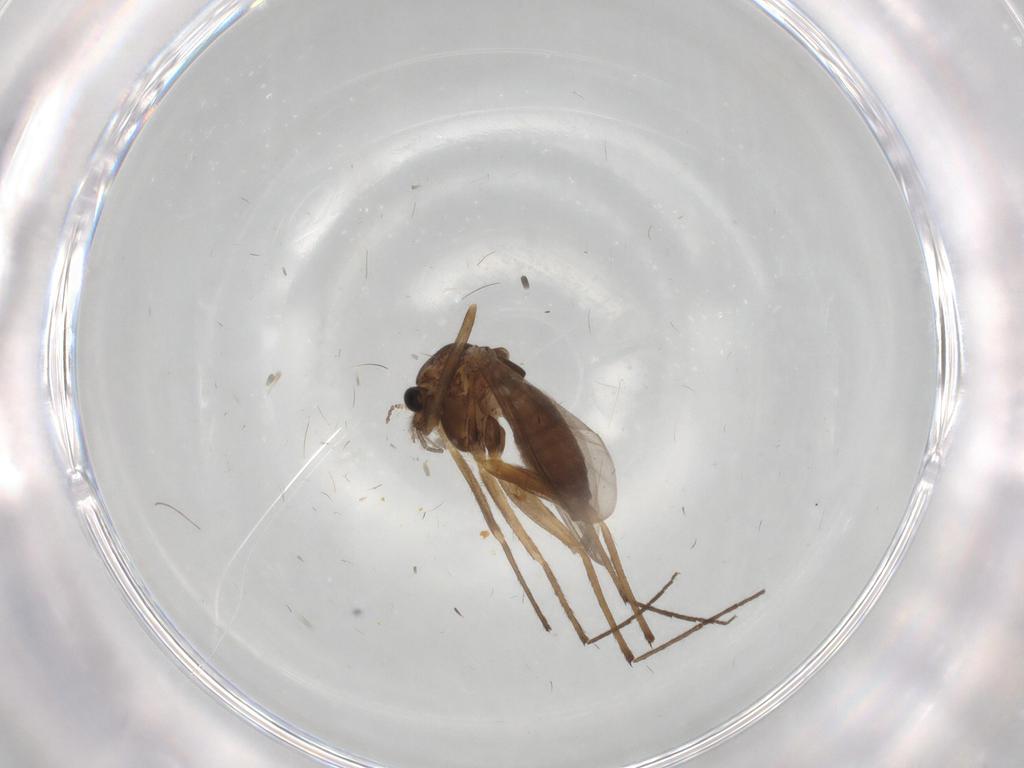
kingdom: Animalia
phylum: Arthropoda
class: Insecta
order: Diptera
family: Chironomidae
